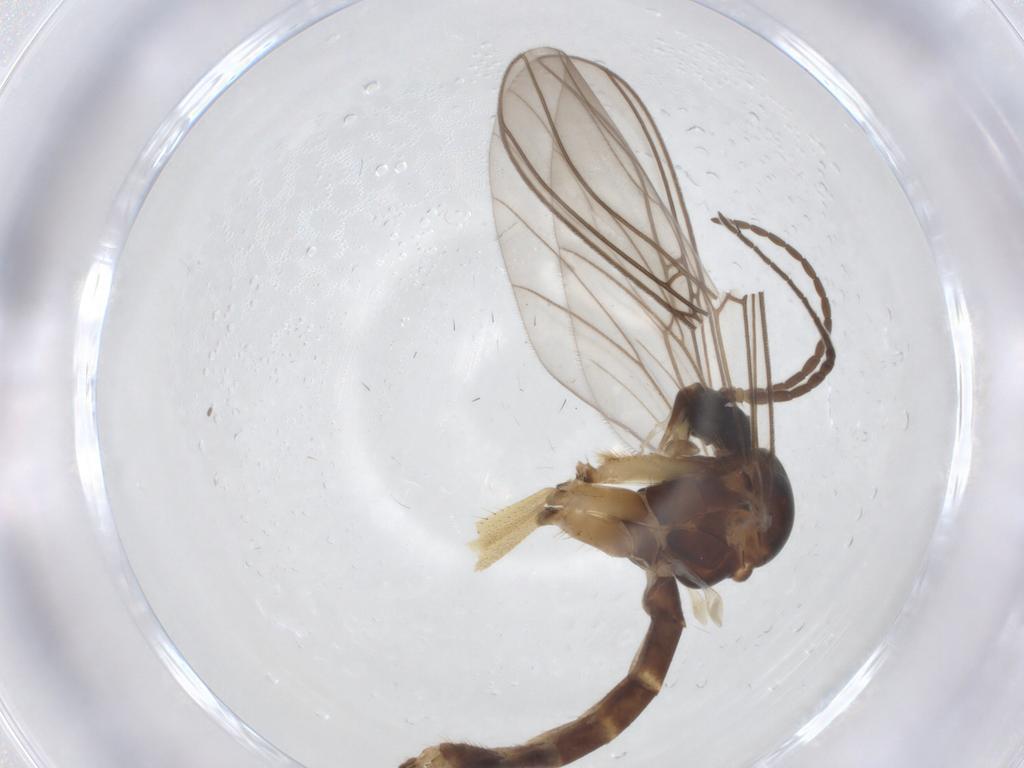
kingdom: Animalia
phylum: Arthropoda
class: Insecta
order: Diptera
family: Mycetophilidae
